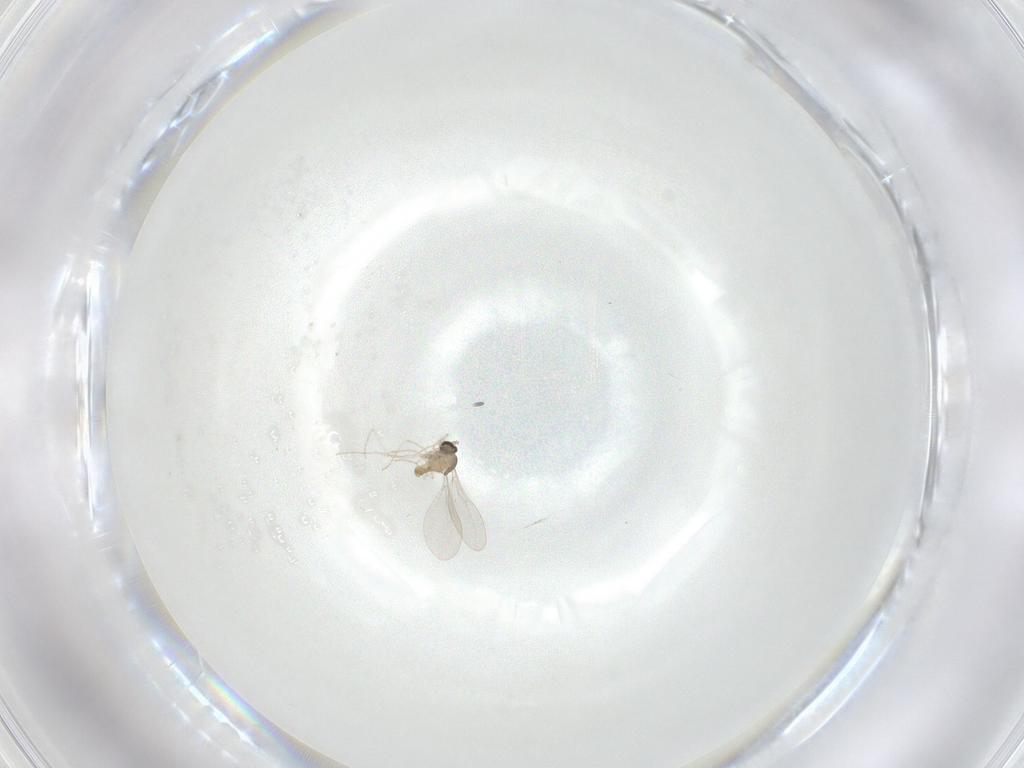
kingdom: Animalia
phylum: Arthropoda
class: Insecta
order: Diptera
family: Cecidomyiidae
